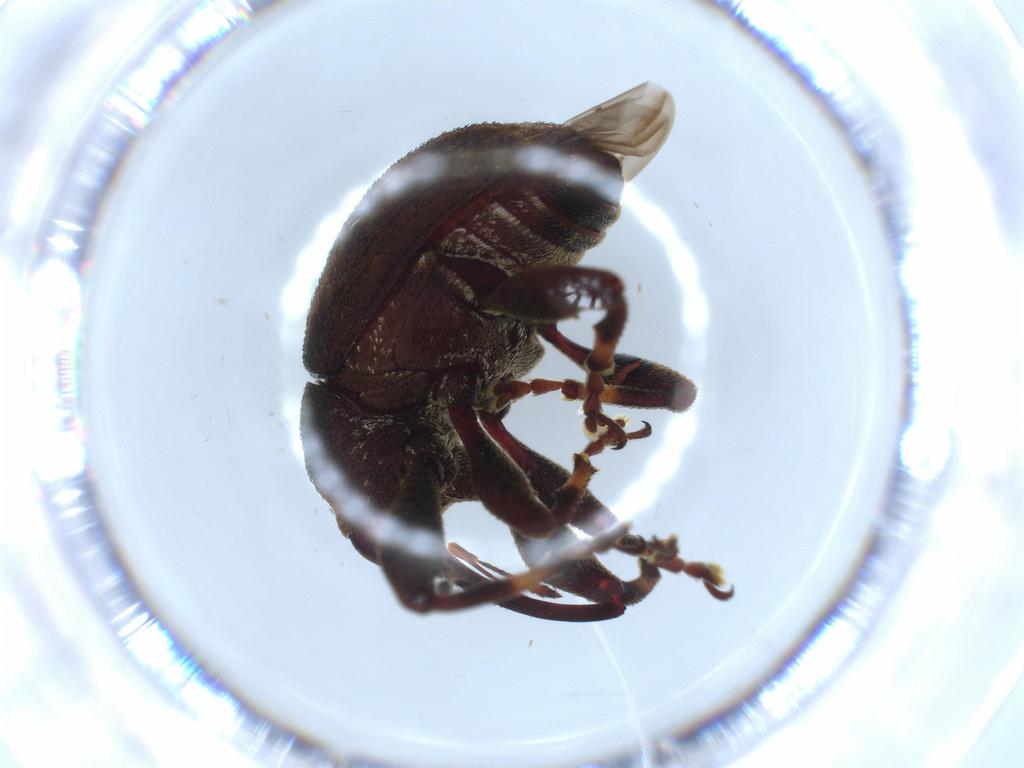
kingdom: Animalia
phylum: Arthropoda
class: Insecta
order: Coleoptera
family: Curculionidae
